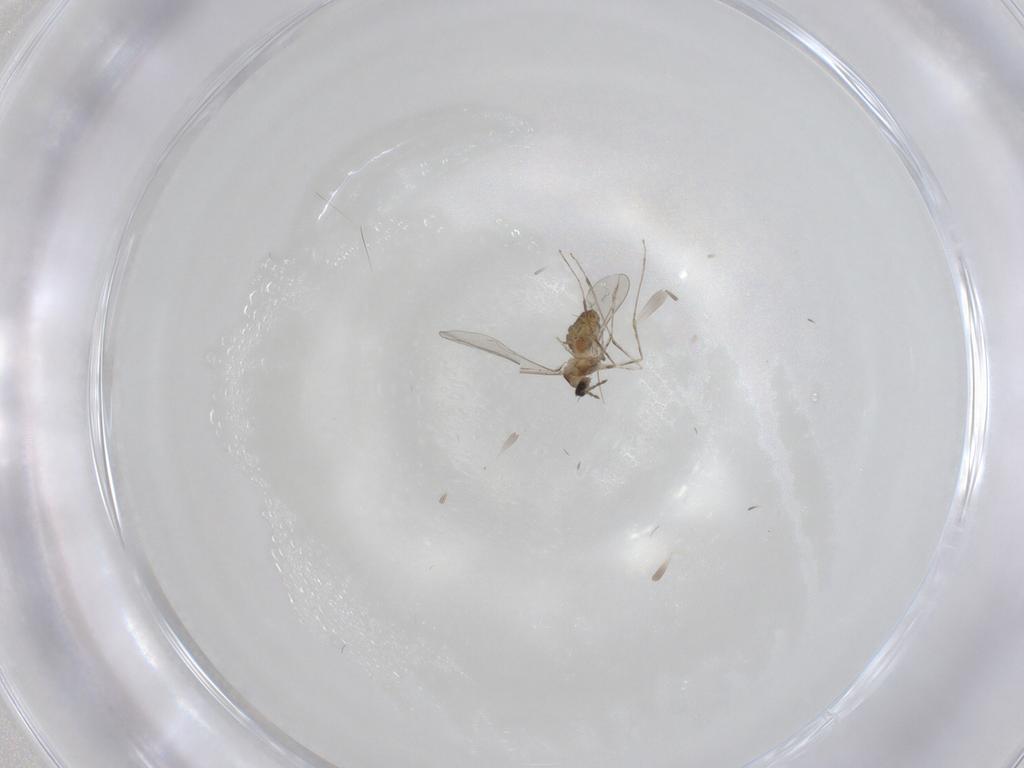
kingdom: Animalia
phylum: Arthropoda
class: Insecta
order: Diptera
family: Cecidomyiidae
